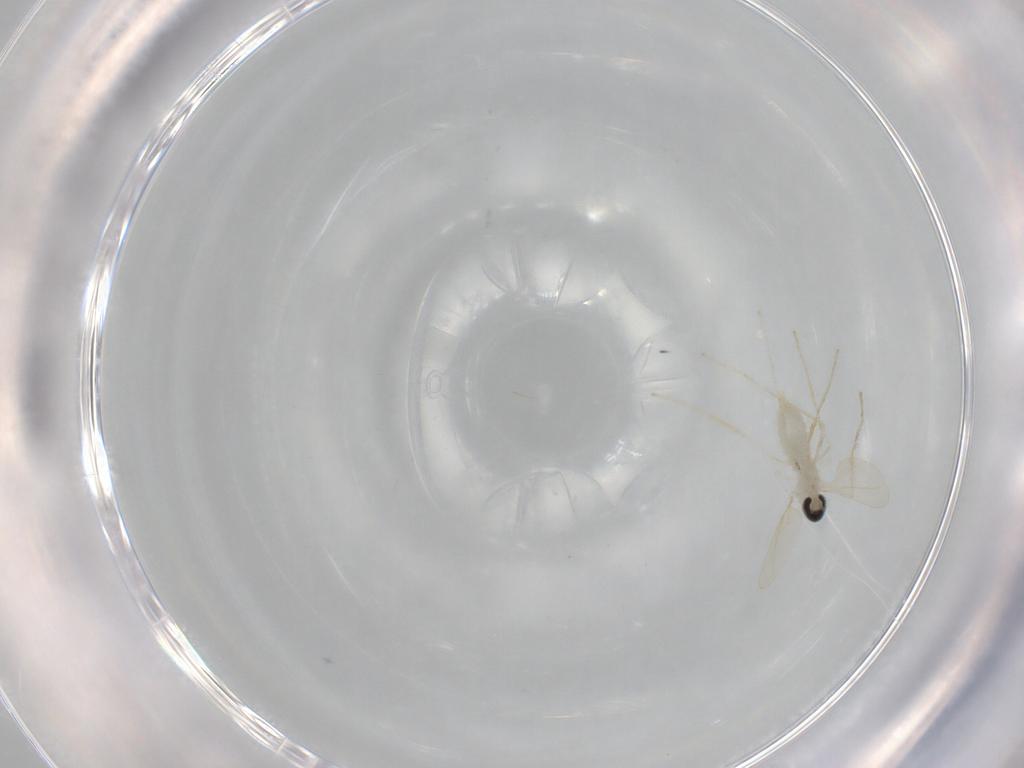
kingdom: Animalia
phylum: Arthropoda
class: Insecta
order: Diptera
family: Cecidomyiidae
